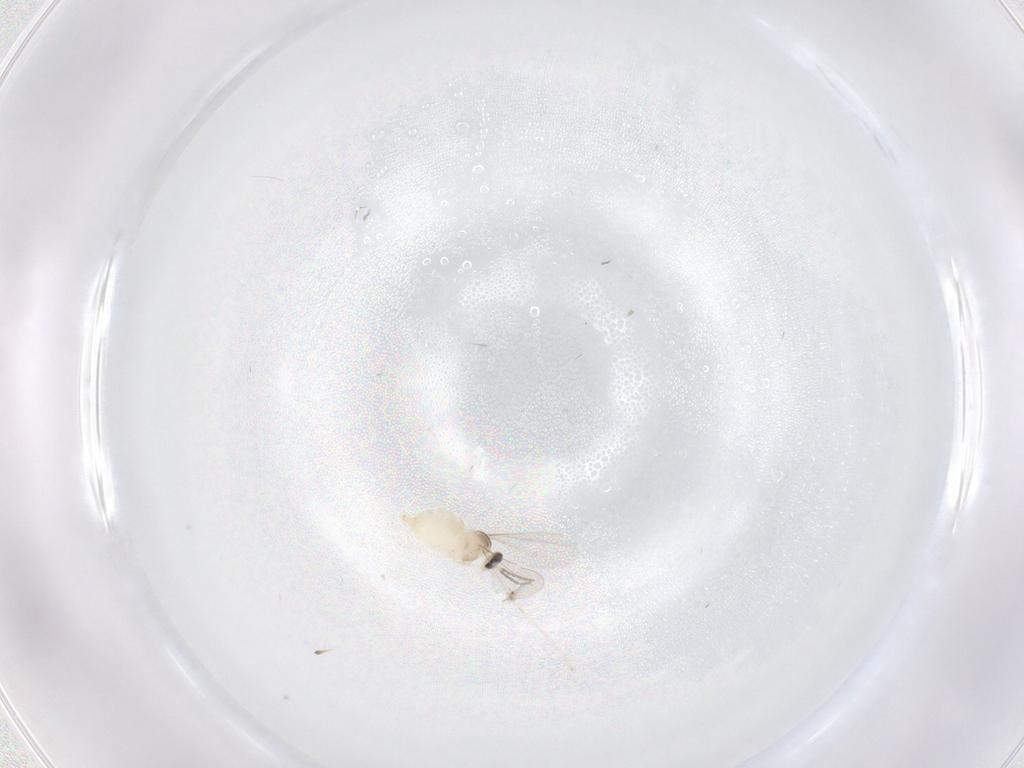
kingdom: Animalia
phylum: Arthropoda
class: Insecta
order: Diptera
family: Cecidomyiidae
